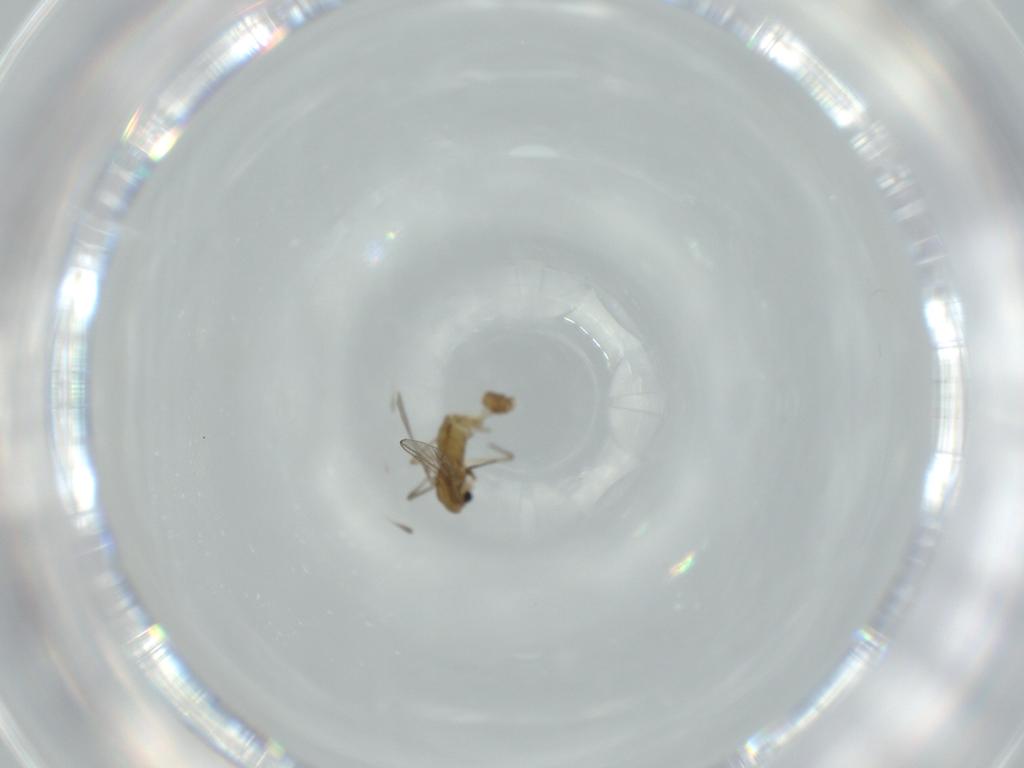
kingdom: Animalia
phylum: Arthropoda
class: Insecta
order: Diptera
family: Chironomidae
